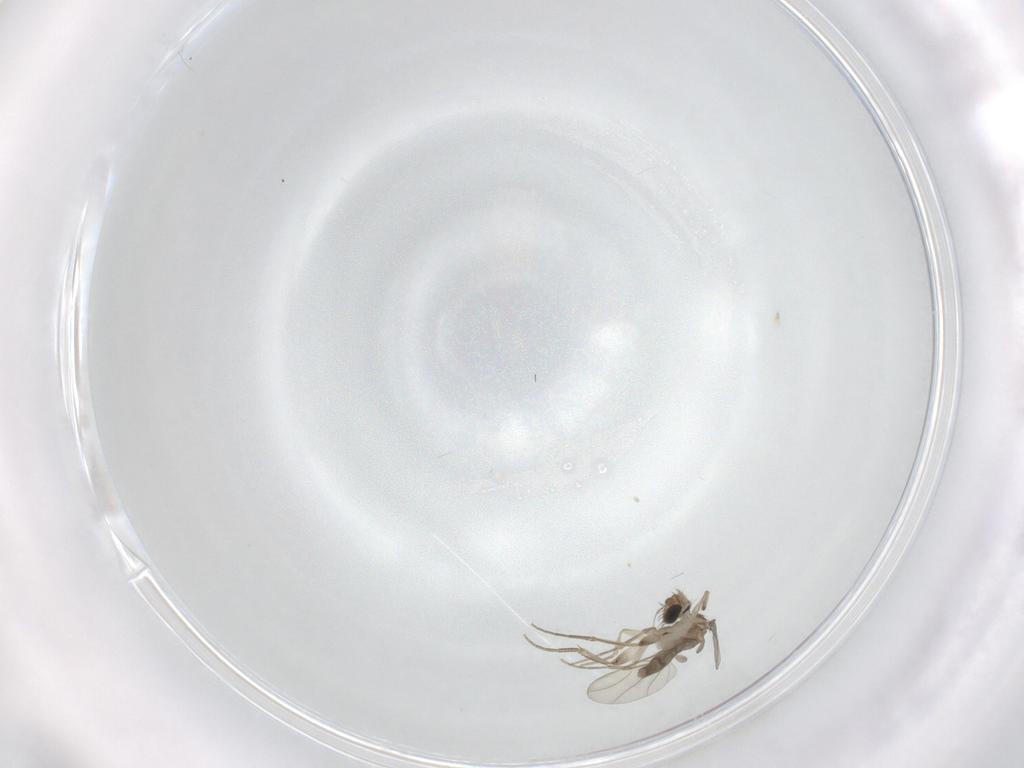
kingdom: Animalia
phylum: Arthropoda
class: Insecta
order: Diptera
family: Phoridae
